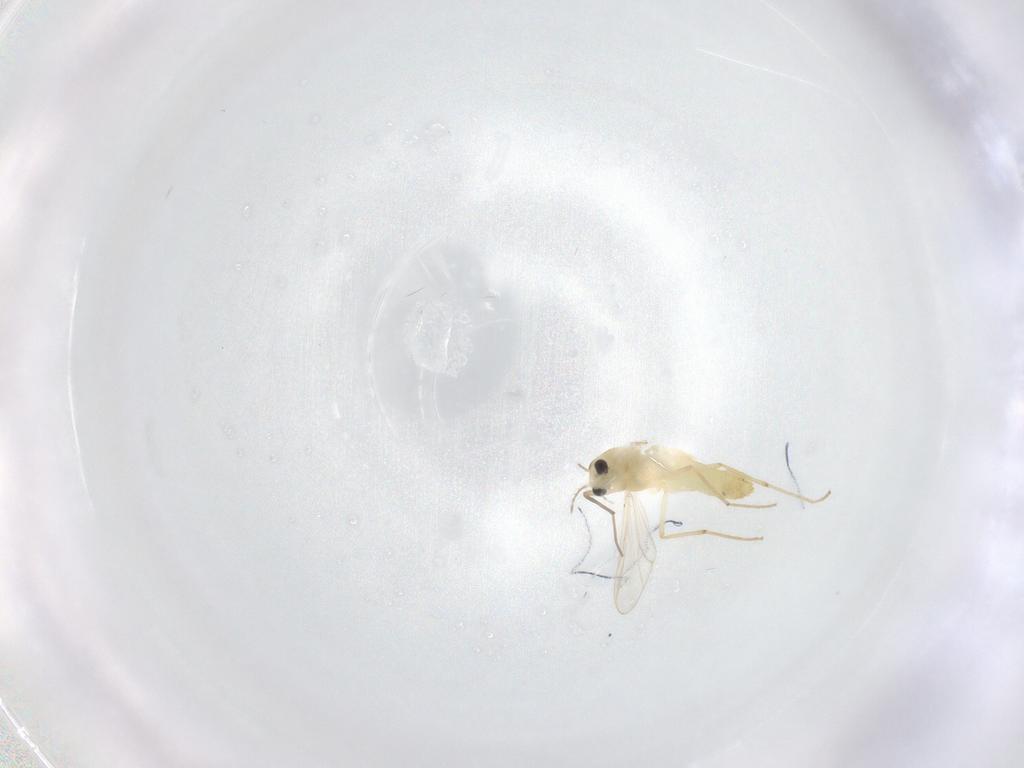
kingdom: Animalia
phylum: Arthropoda
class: Insecta
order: Diptera
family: Chironomidae
